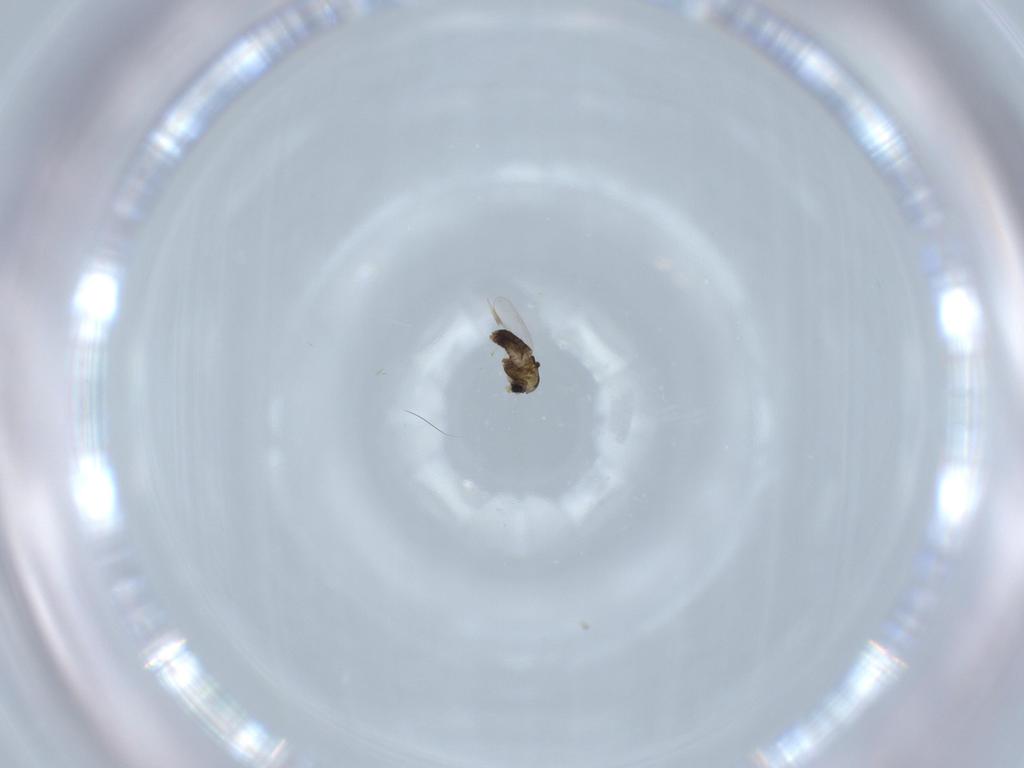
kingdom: Animalia
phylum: Arthropoda
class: Insecta
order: Diptera
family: Chironomidae
